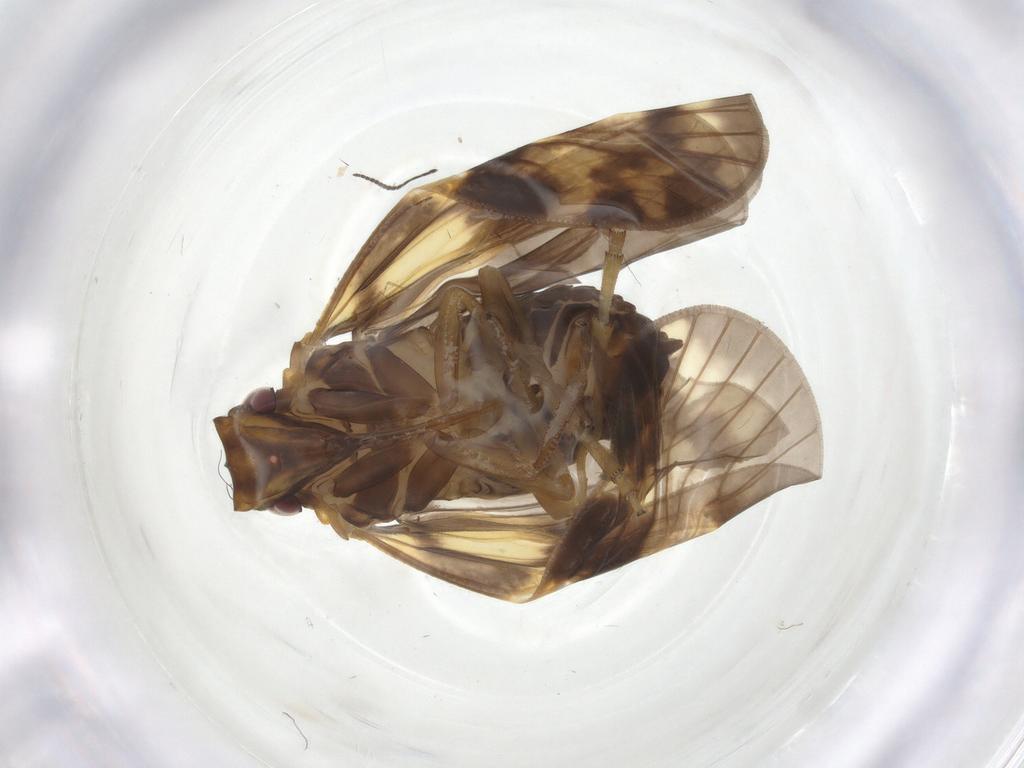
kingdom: Animalia
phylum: Arthropoda
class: Insecta
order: Hemiptera
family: Cixiidae
